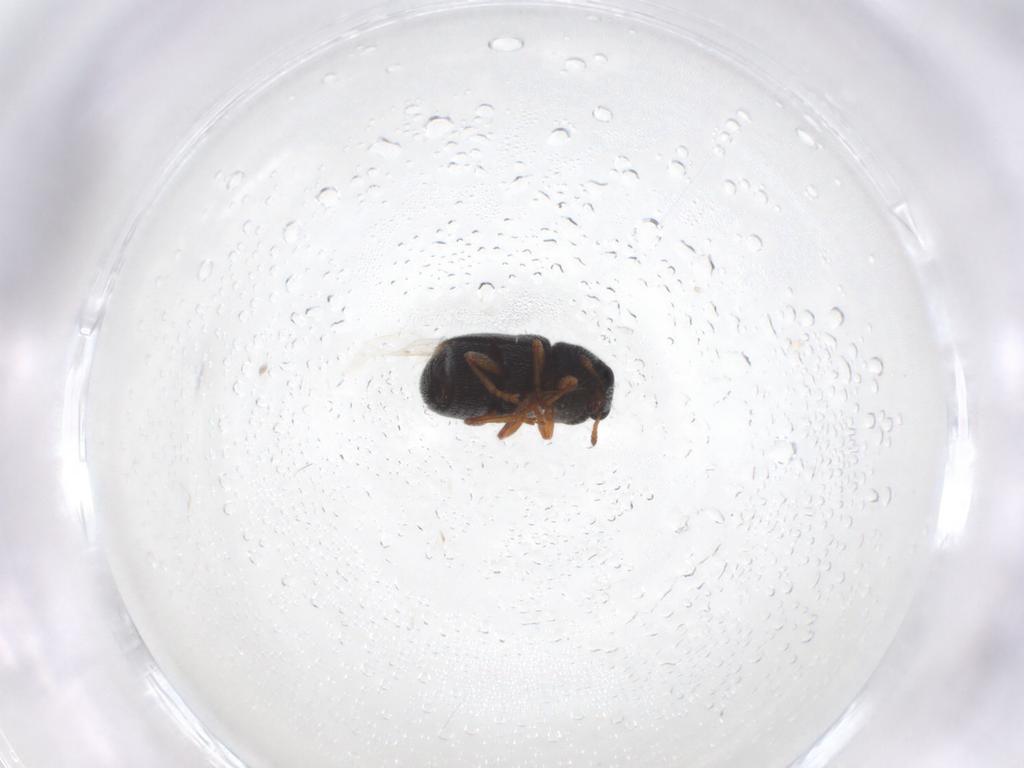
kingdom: Animalia
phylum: Arthropoda
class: Insecta
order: Coleoptera
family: Anthribidae
